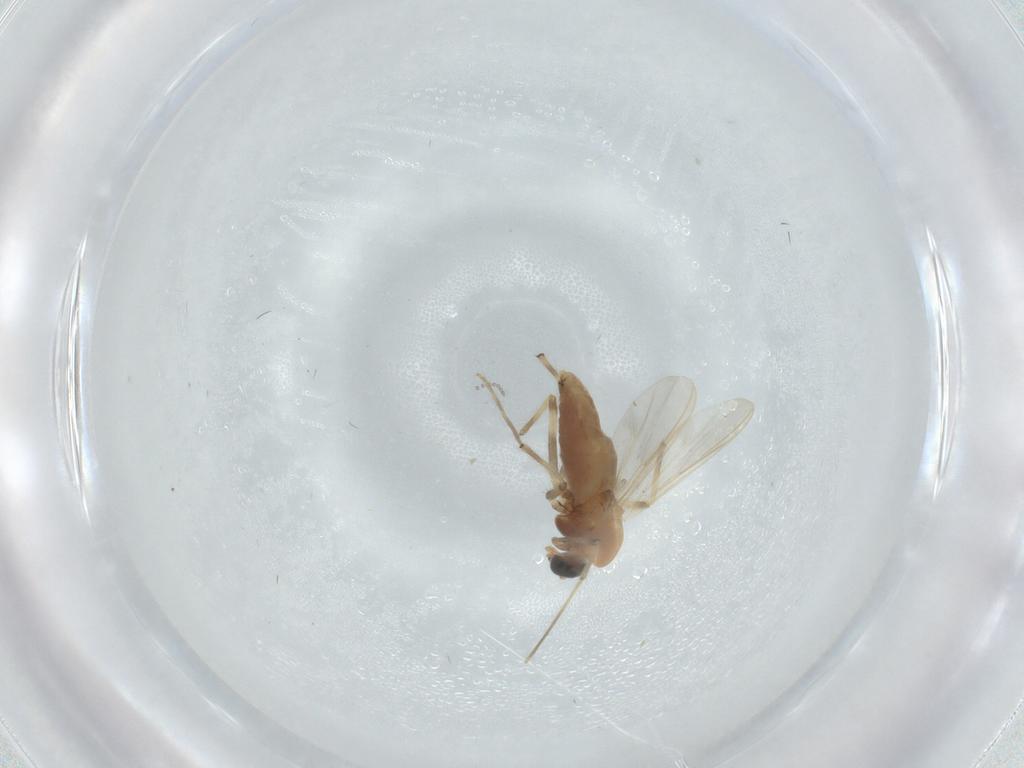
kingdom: Animalia
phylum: Arthropoda
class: Insecta
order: Diptera
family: Chironomidae
